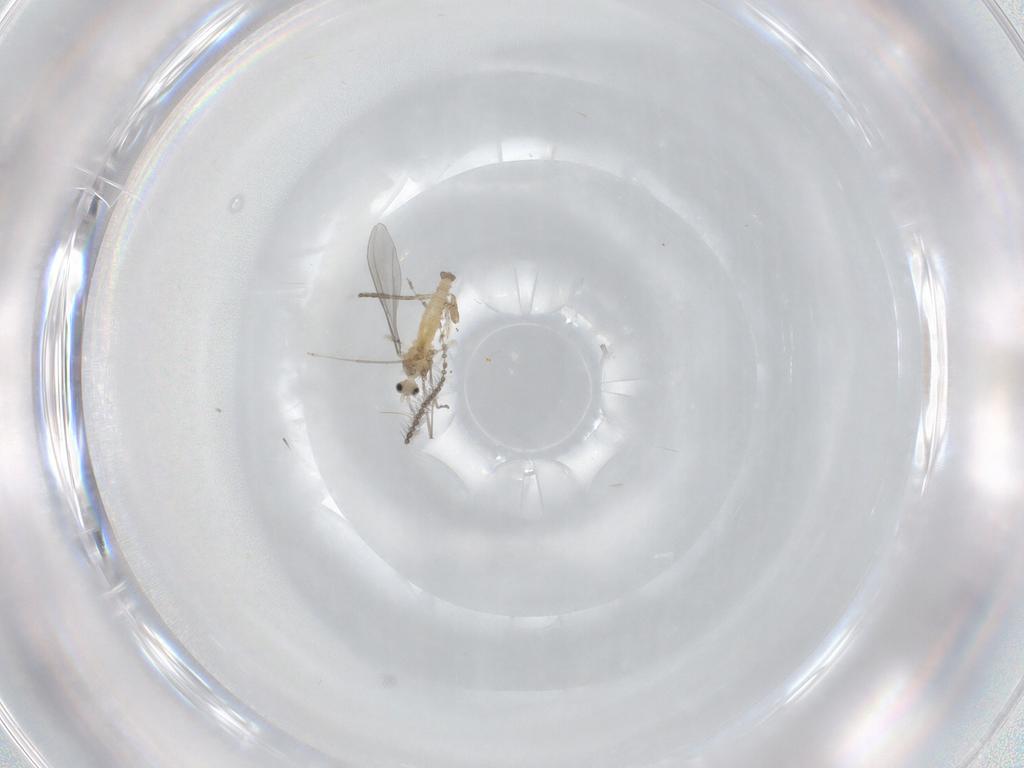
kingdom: Animalia
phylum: Arthropoda
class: Insecta
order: Diptera
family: Cecidomyiidae
